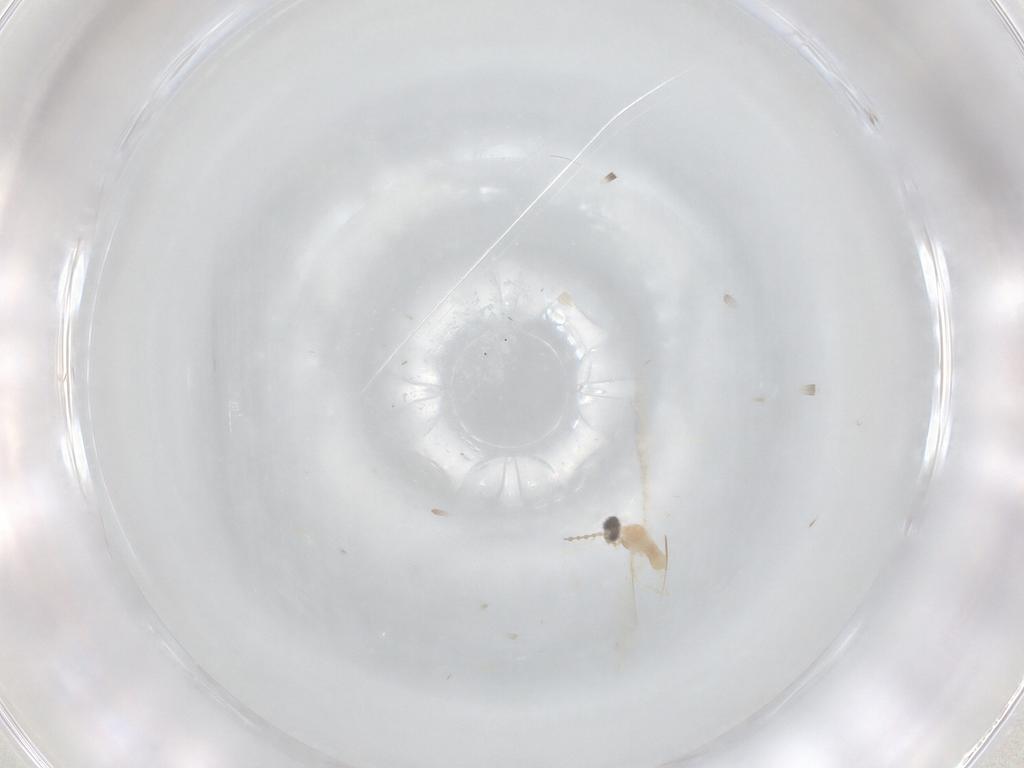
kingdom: Animalia
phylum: Arthropoda
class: Insecta
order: Diptera
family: Cecidomyiidae
